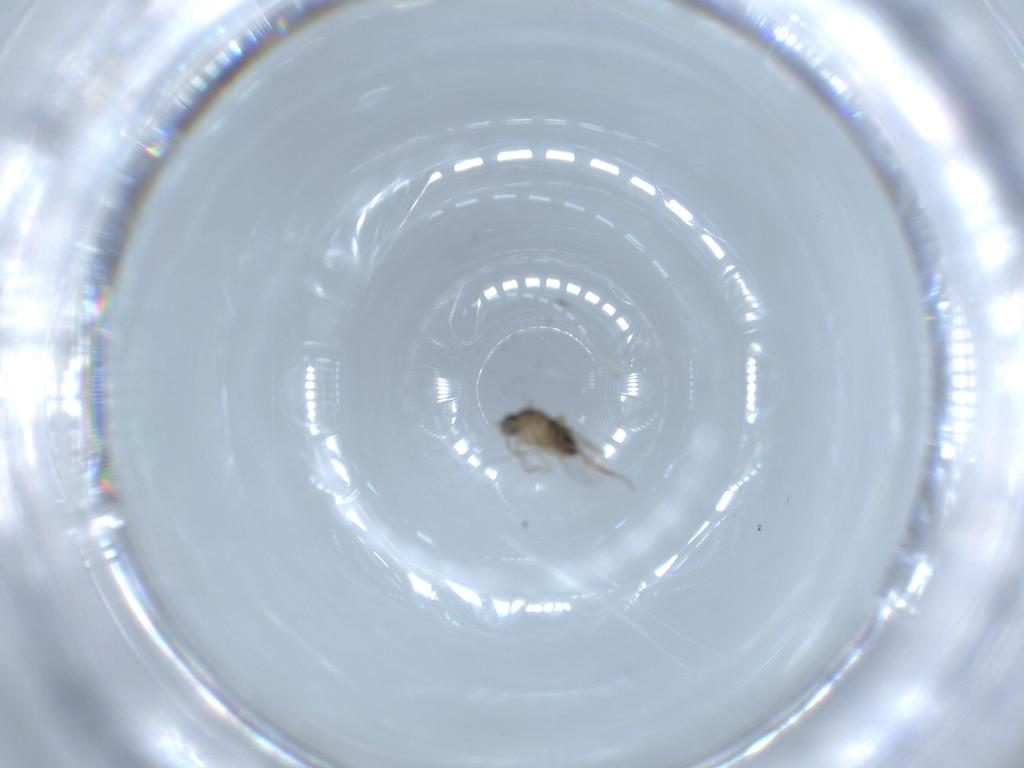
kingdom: Animalia
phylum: Arthropoda
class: Insecta
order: Diptera
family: Phoridae
